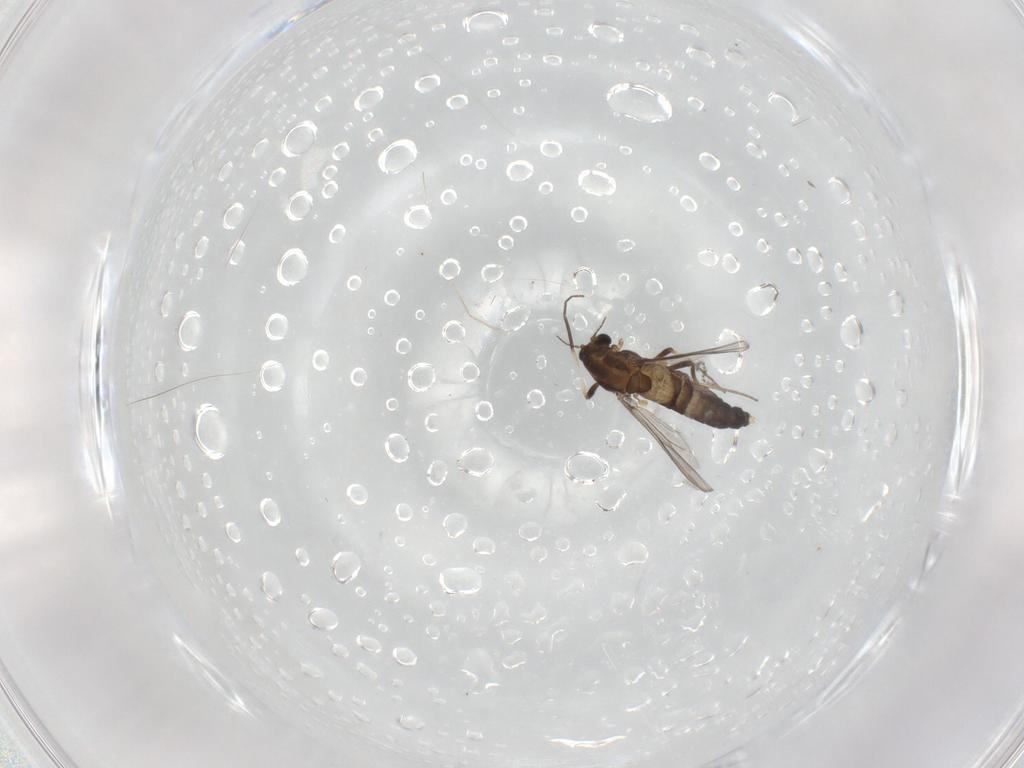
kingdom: Animalia
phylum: Arthropoda
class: Insecta
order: Diptera
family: Chironomidae
